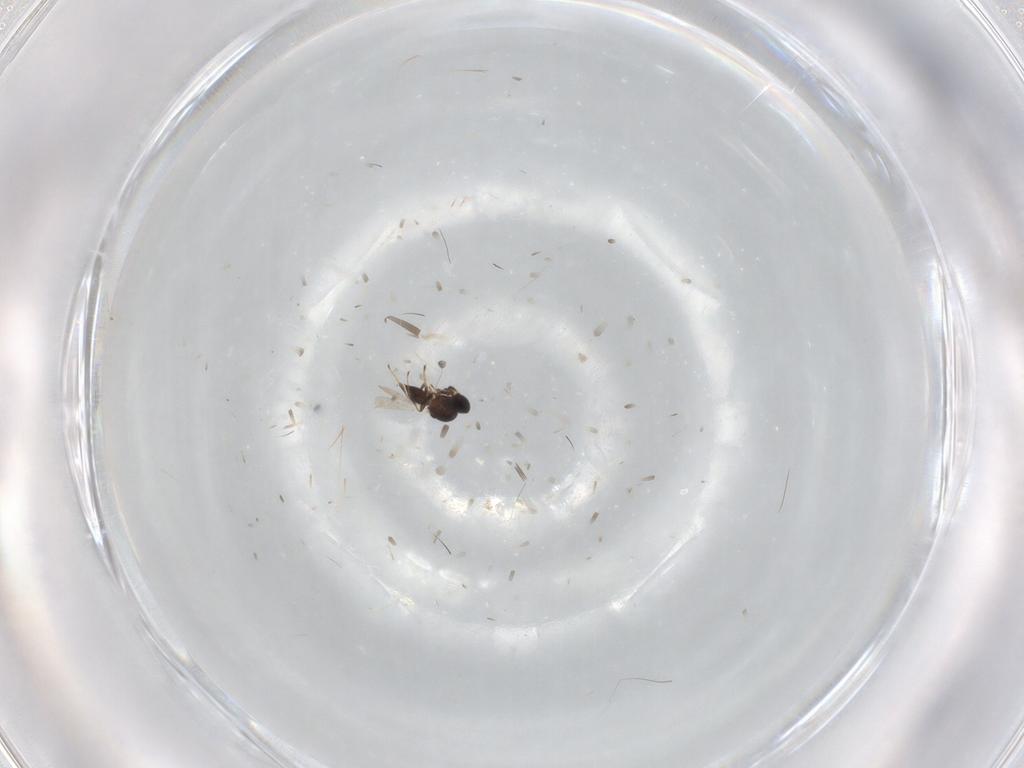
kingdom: Animalia
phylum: Arthropoda
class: Insecta
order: Hymenoptera
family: Platygastridae
